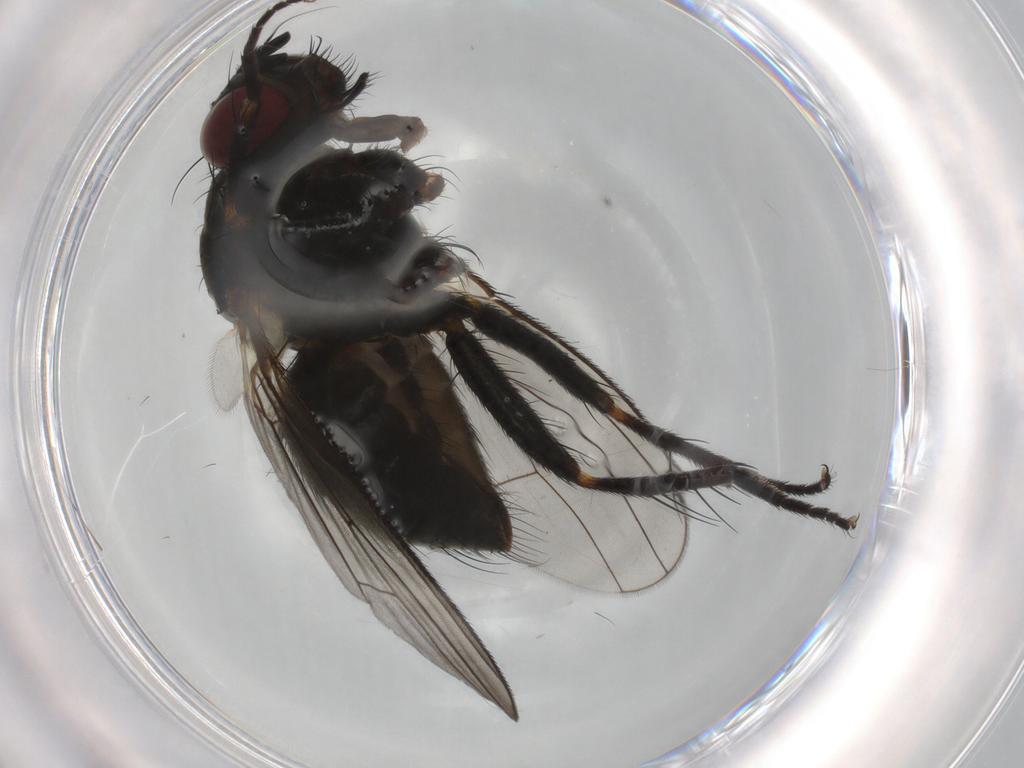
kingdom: Animalia
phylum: Arthropoda
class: Insecta
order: Diptera
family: Muscidae
